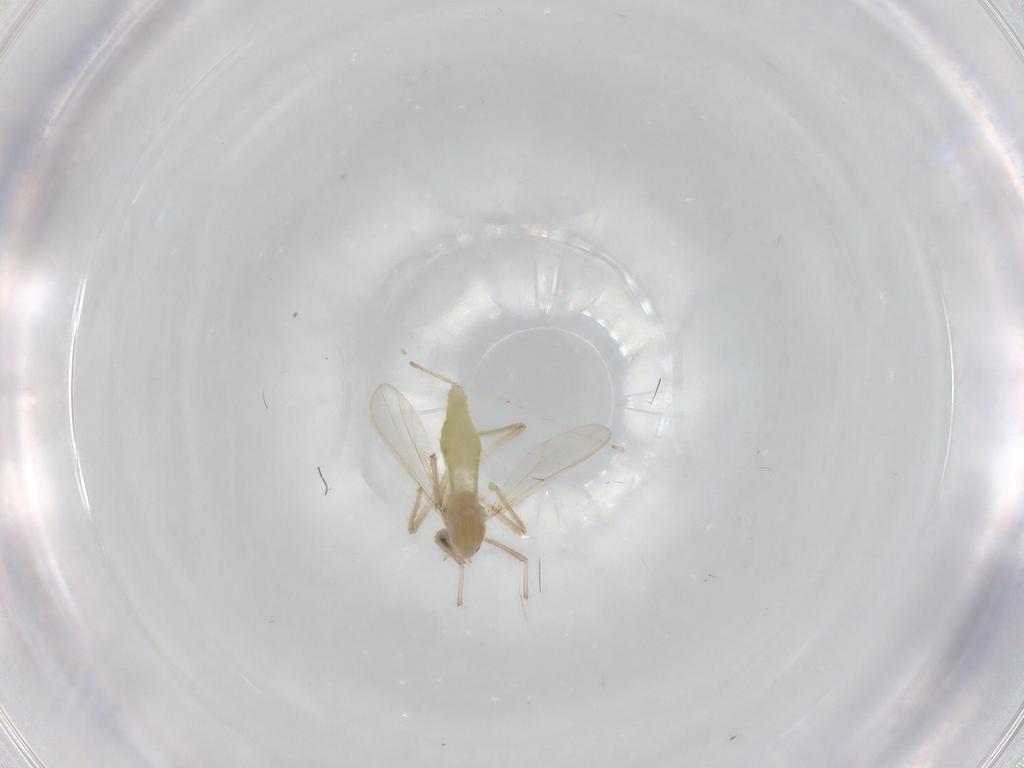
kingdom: Animalia
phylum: Arthropoda
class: Insecta
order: Diptera
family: Chironomidae
